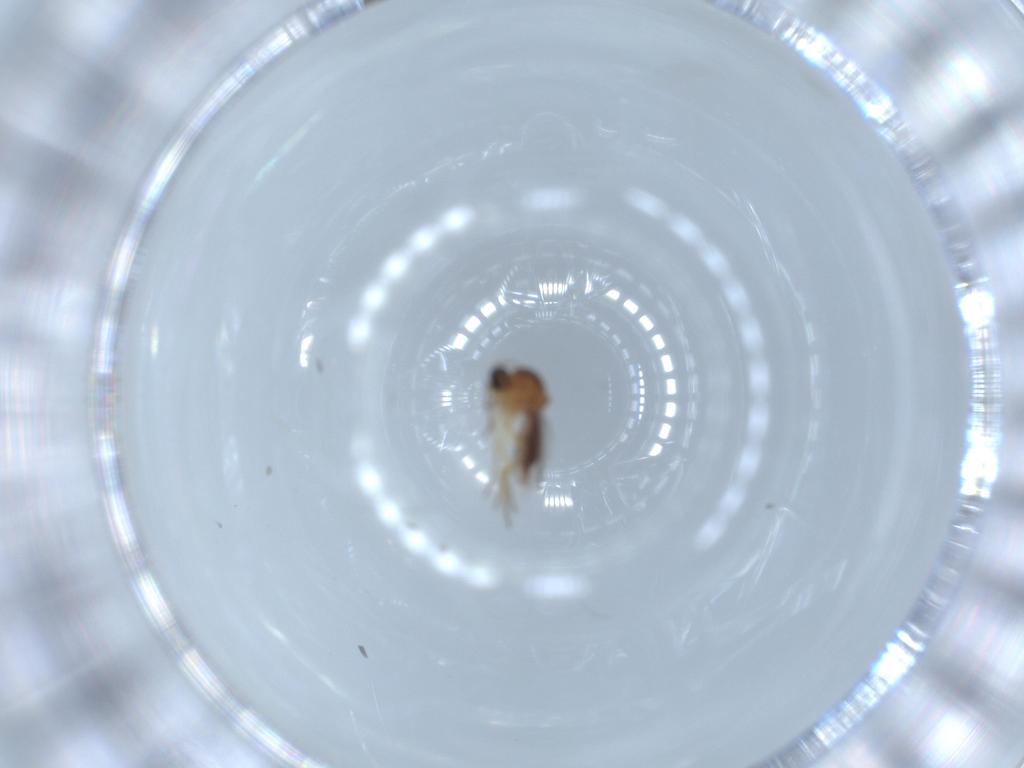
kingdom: Animalia
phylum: Arthropoda
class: Insecta
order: Diptera
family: Ceratopogonidae
